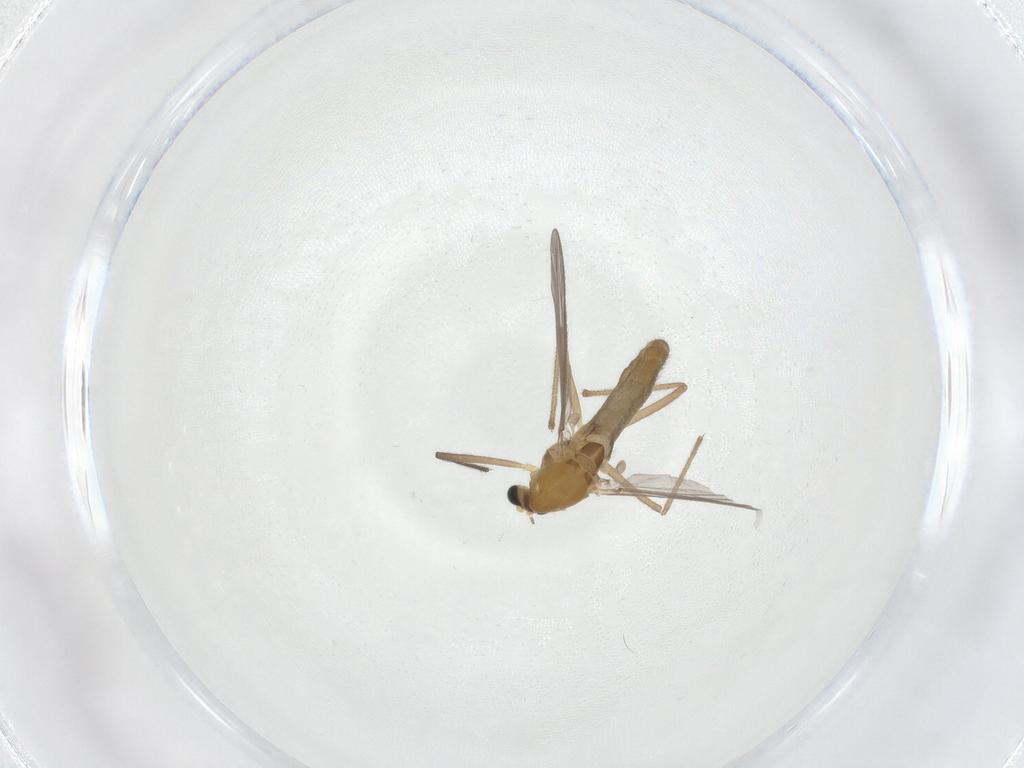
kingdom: Animalia
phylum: Arthropoda
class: Insecta
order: Diptera
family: Chironomidae
